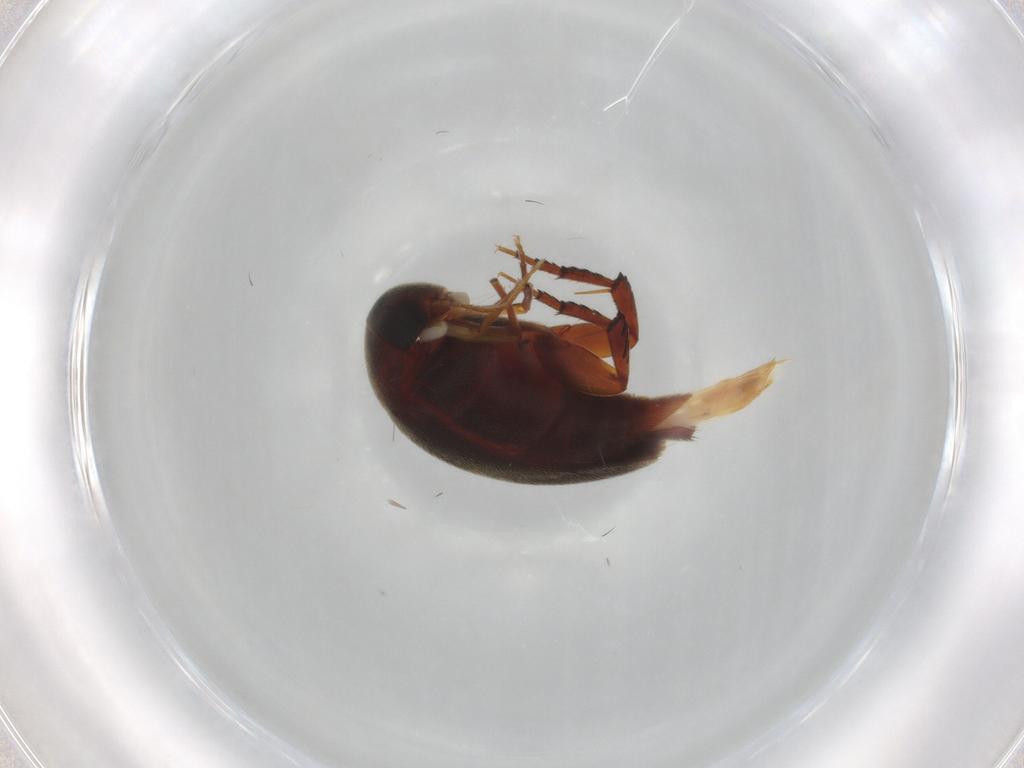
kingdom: Animalia
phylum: Arthropoda
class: Insecta
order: Coleoptera
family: Mordellidae
